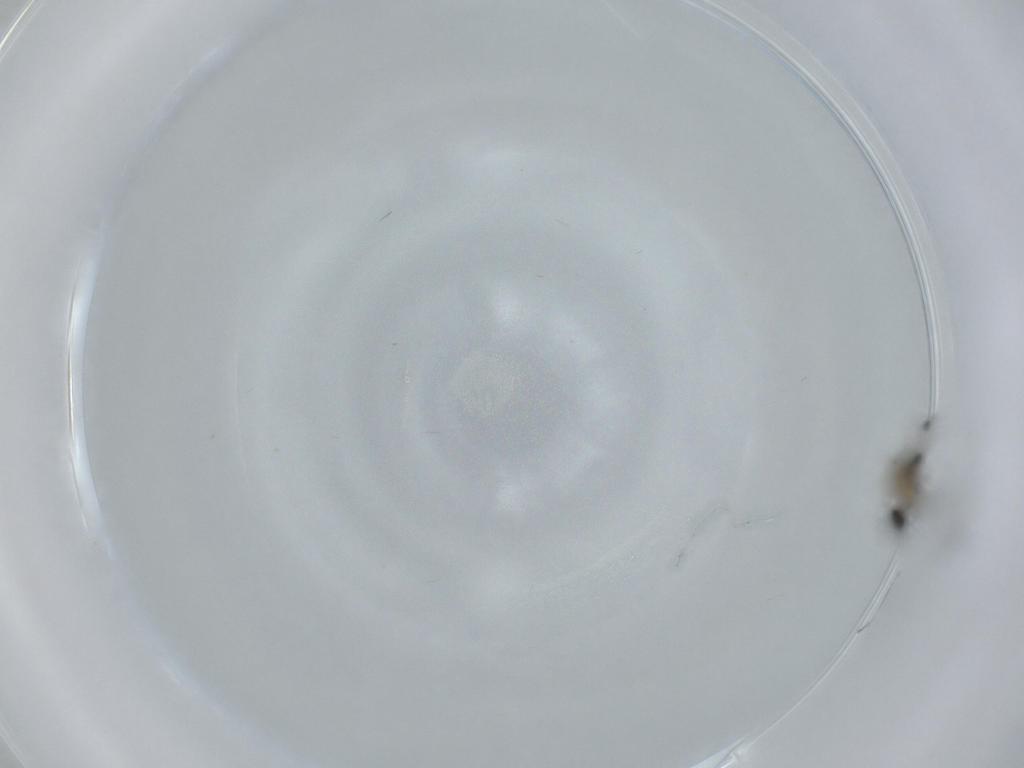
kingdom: Animalia
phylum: Arthropoda
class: Insecta
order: Diptera
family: Cecidomyiidae
